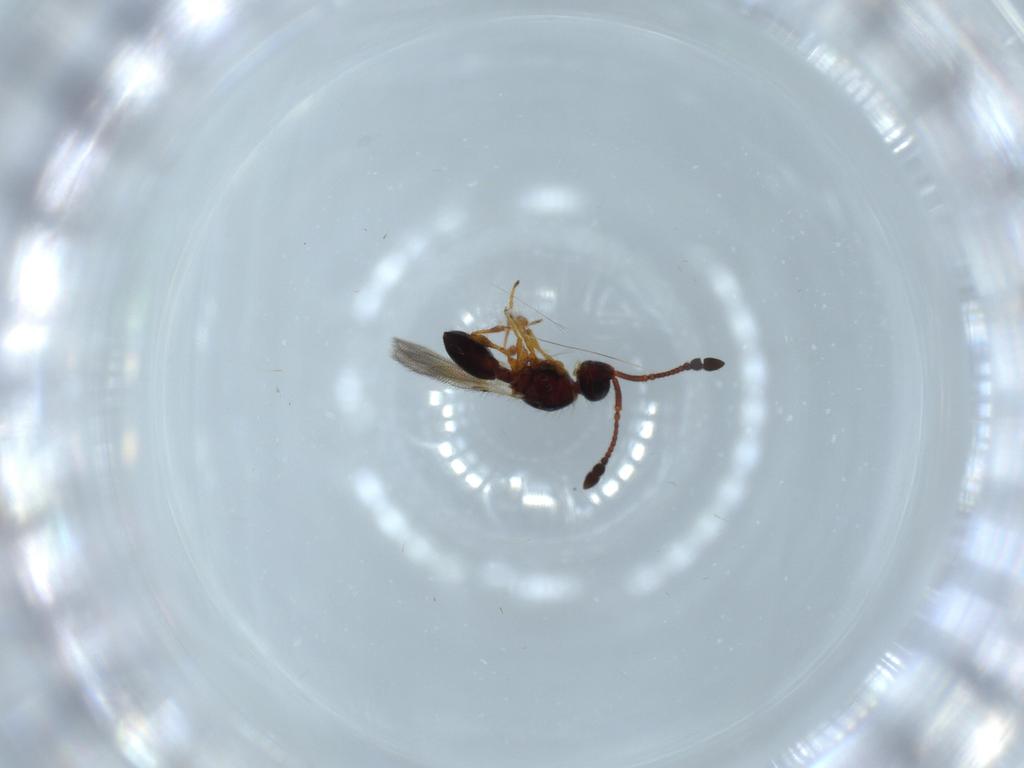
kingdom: Animalia
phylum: Arthropoda
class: Insecta
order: Hymenoptera
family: Diapriidae
